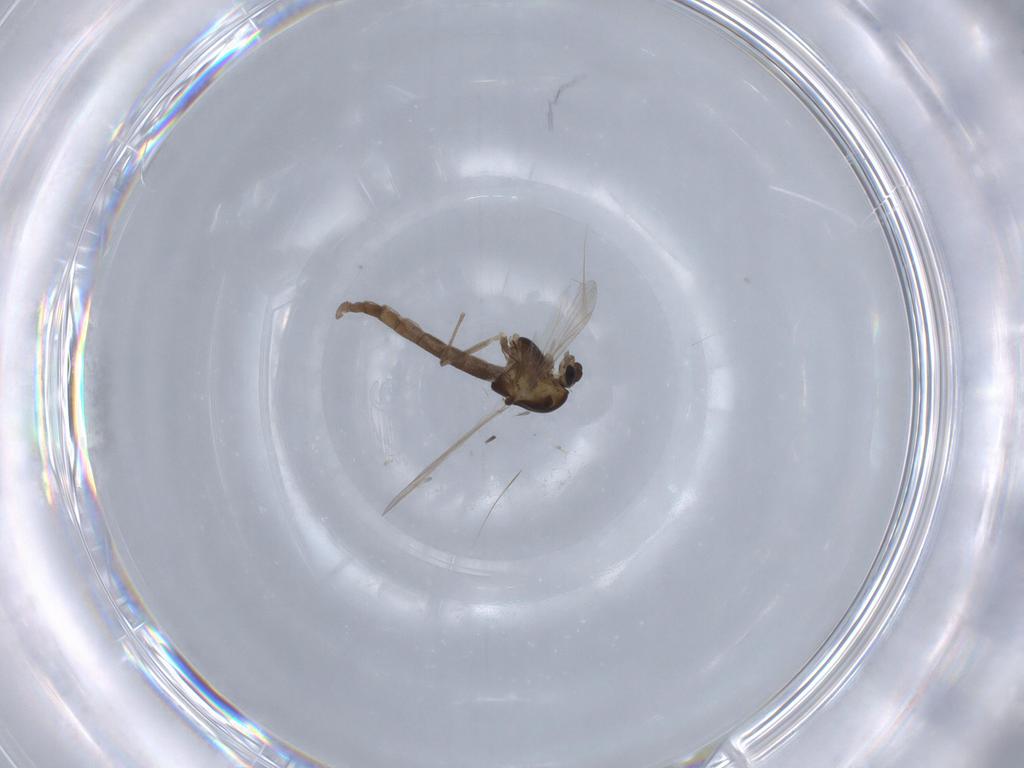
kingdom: Animalia
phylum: Arthropoda
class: Insecta
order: Diptera
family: Chironomidae
